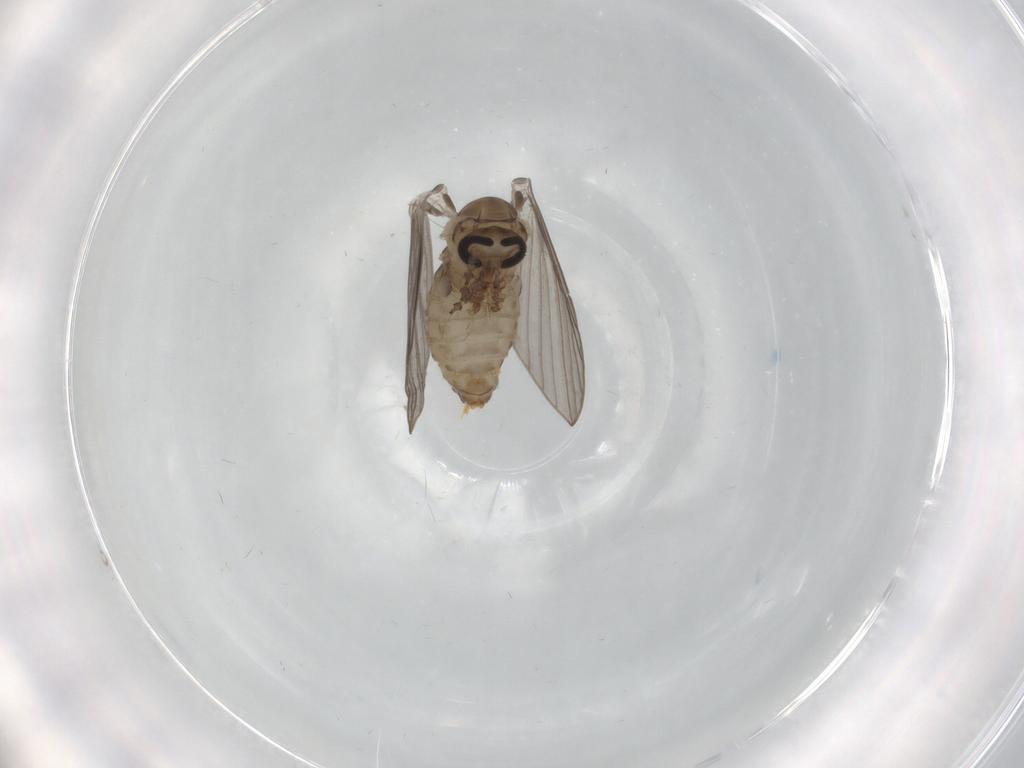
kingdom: Animalia
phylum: Arthropoda
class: Insecta
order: Diptera
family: Psychodidae
